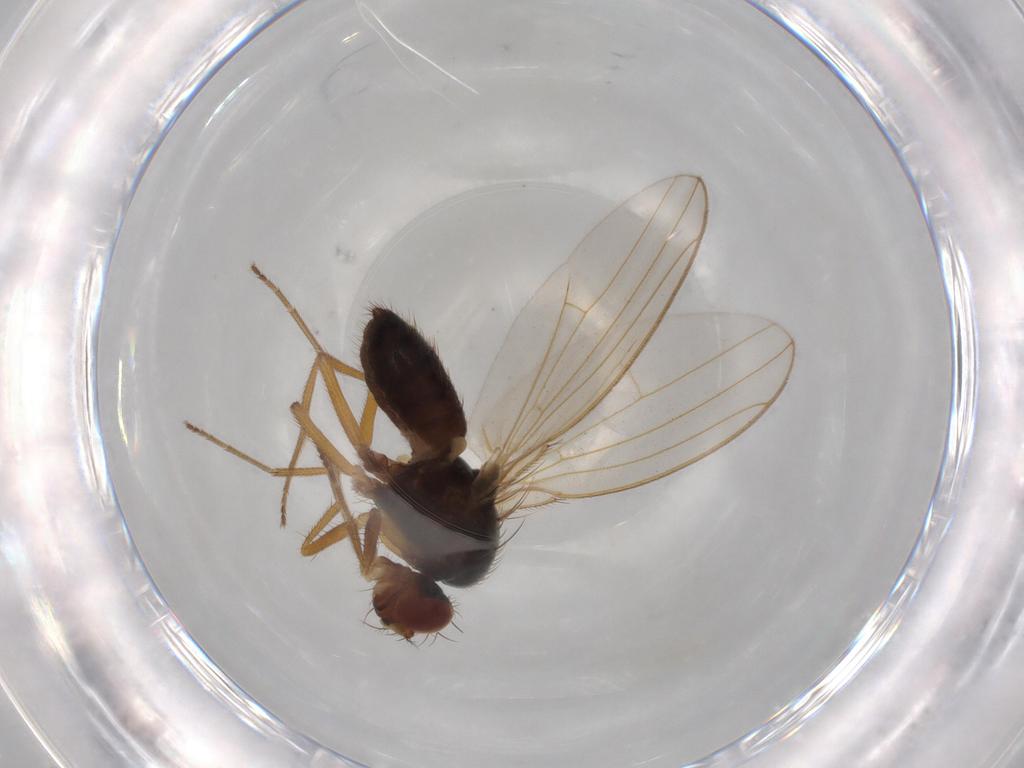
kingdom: Animalia
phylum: Arthropoda
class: Insecta
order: Diptera
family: Drosophilidae
